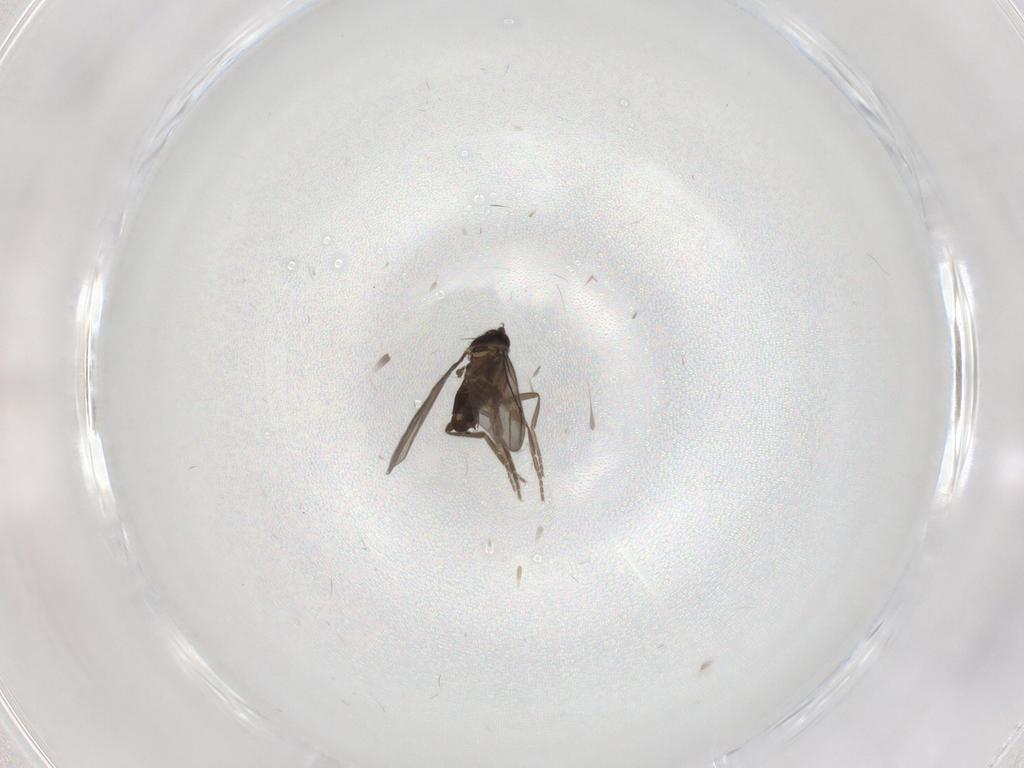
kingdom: Animalia
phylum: Arthropoda
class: Insecta
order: Diptera
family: Phoridae
